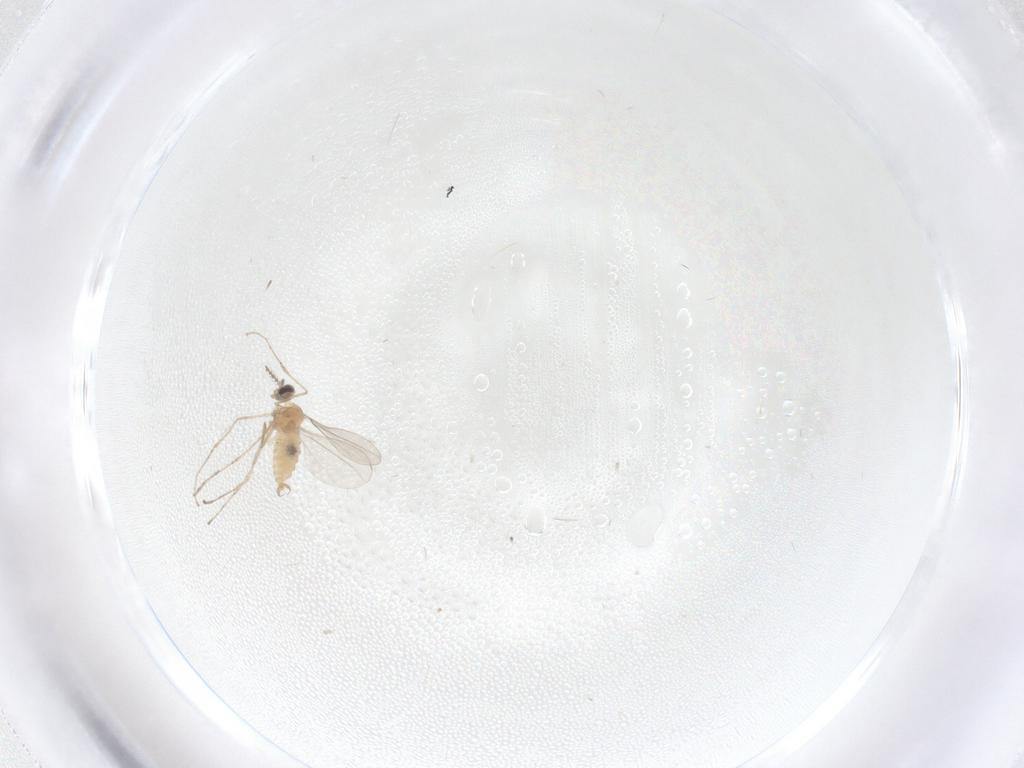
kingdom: Animalia
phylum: Arthropoda
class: Insecta
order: Diptera
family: Cecidomyiidae
